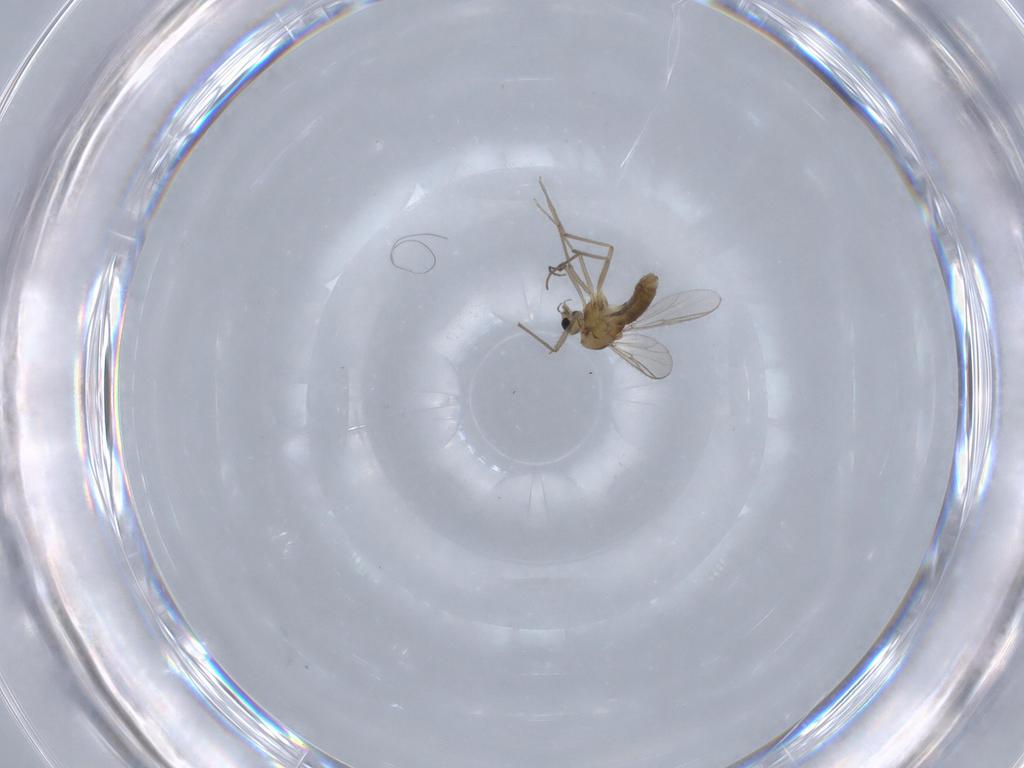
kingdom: Animalia
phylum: Arthropoda
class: Insecta
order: Diptera
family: Chironomidae
